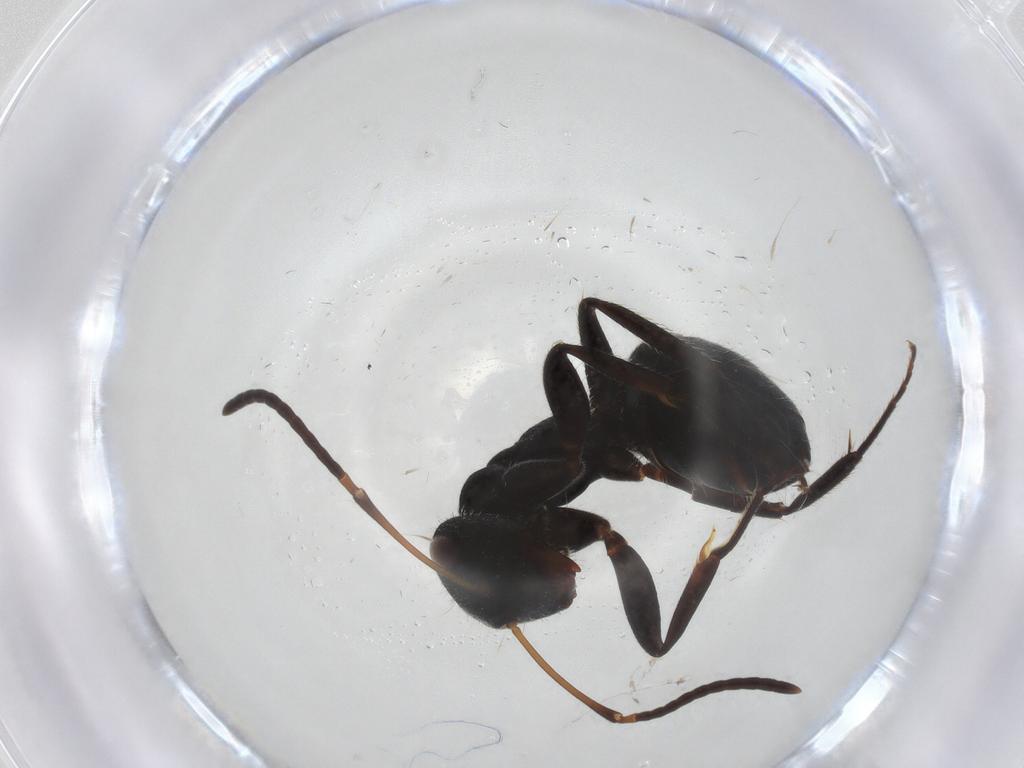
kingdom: Animalia
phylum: Arthropoda
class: Insecta
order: Hymenoptera
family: Formicidae
